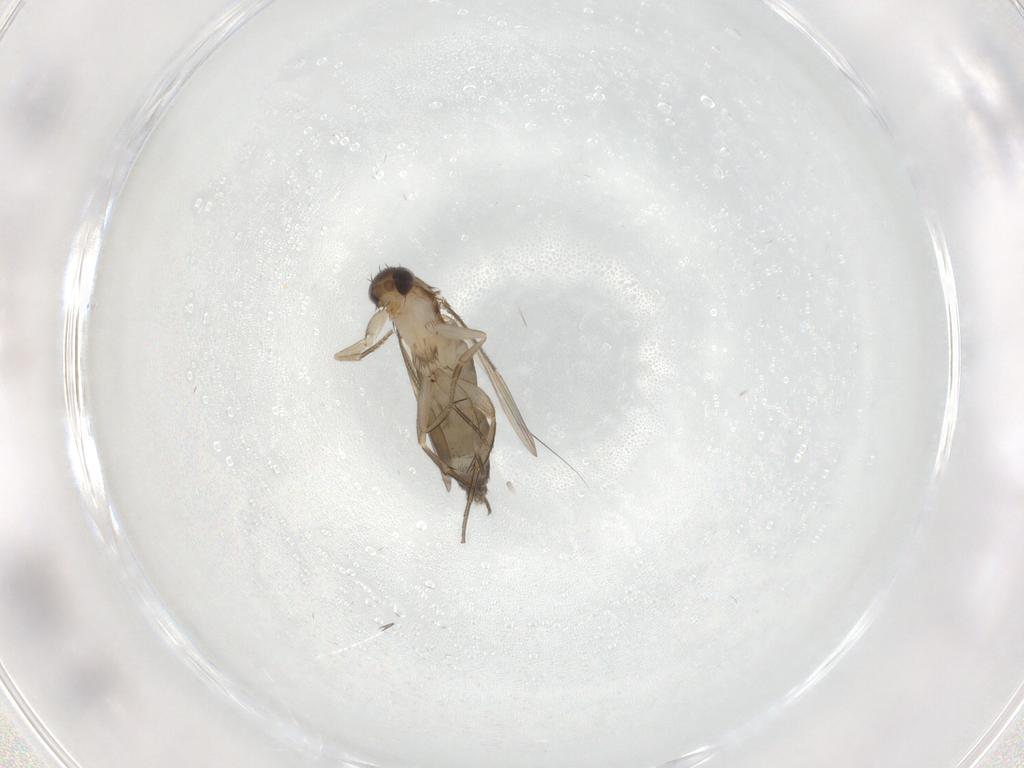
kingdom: Animalia
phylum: Arthropoda
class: Insecta
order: Diptera
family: Phoridae
